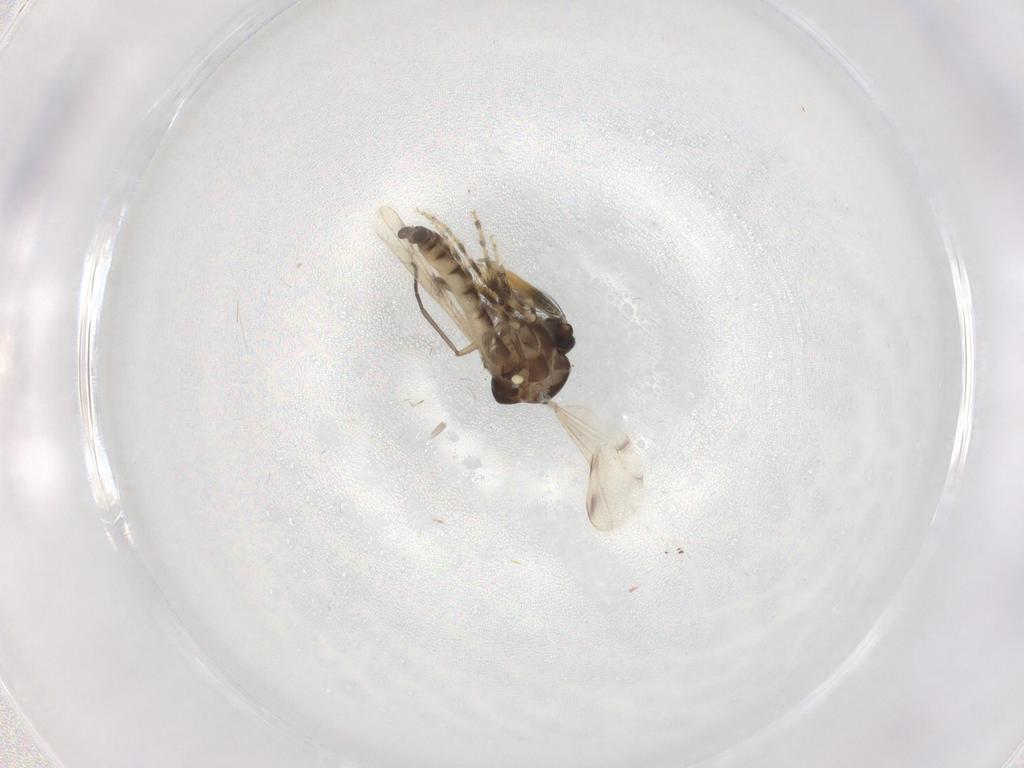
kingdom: Animalia
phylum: Arthropoda
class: Insecta
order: Diptera
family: Ceratopogonidae
